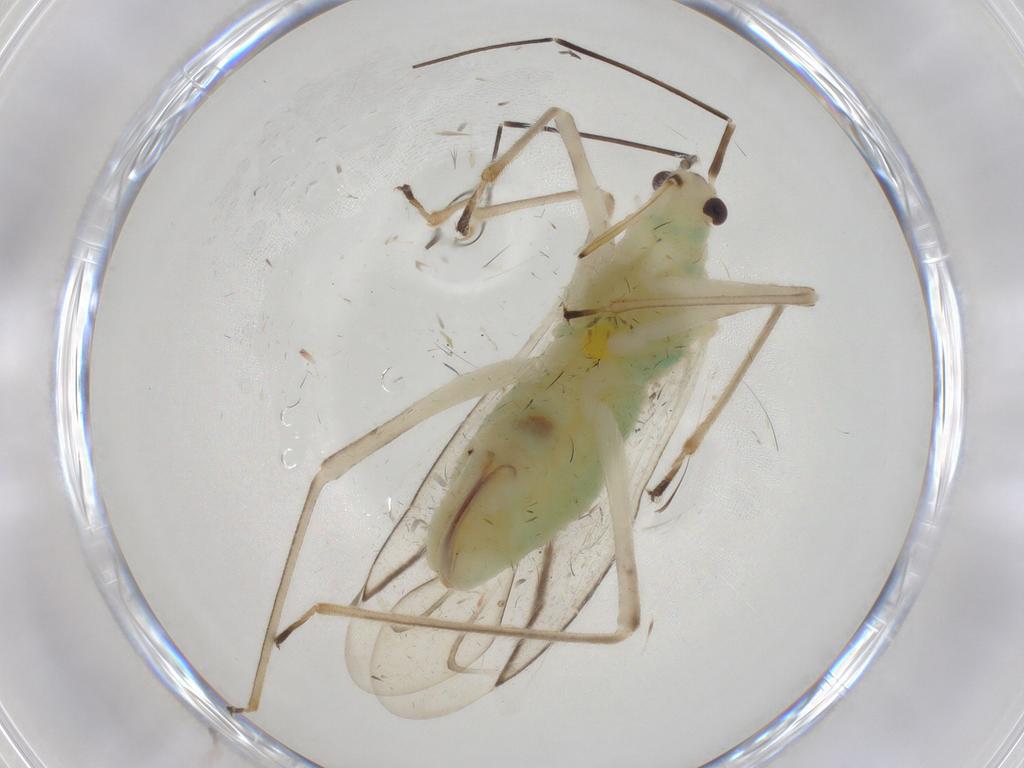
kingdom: Animalia
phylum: Arthropoda
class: Insecta
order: Hemiptera
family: Miridae
